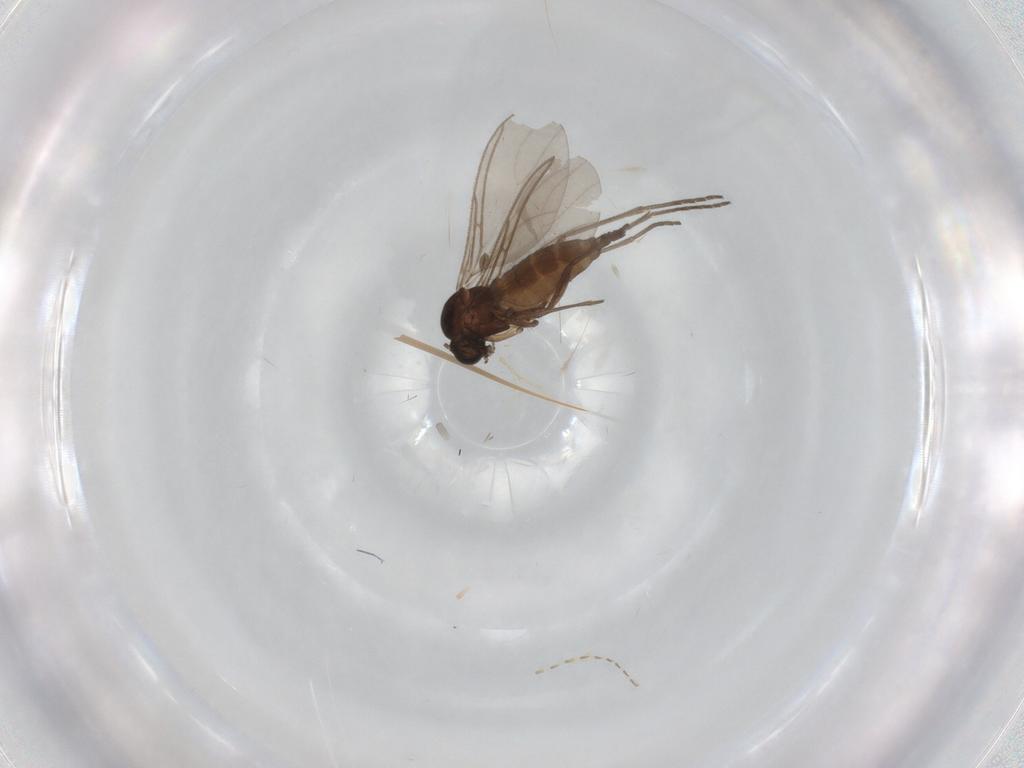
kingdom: Animalia
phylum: Arthropoda
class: Insecta
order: Diptera
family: Sciaridae
